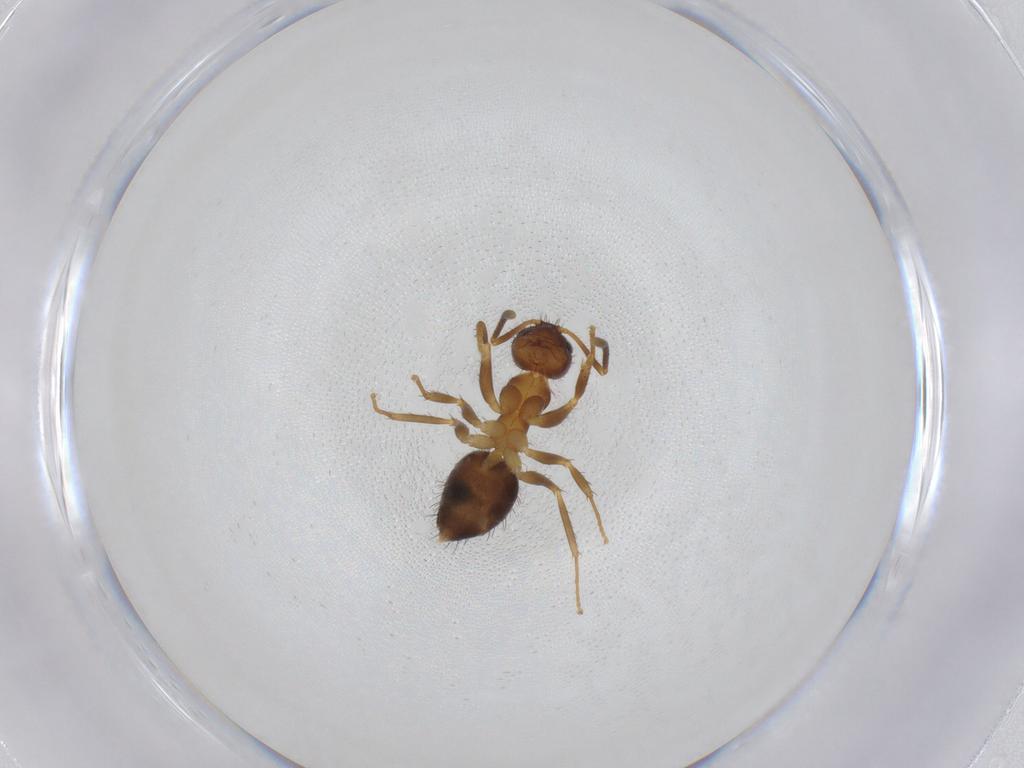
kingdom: Animalia
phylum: Arthropoda
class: Insecta
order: Hymenoptera
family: Formicidae
